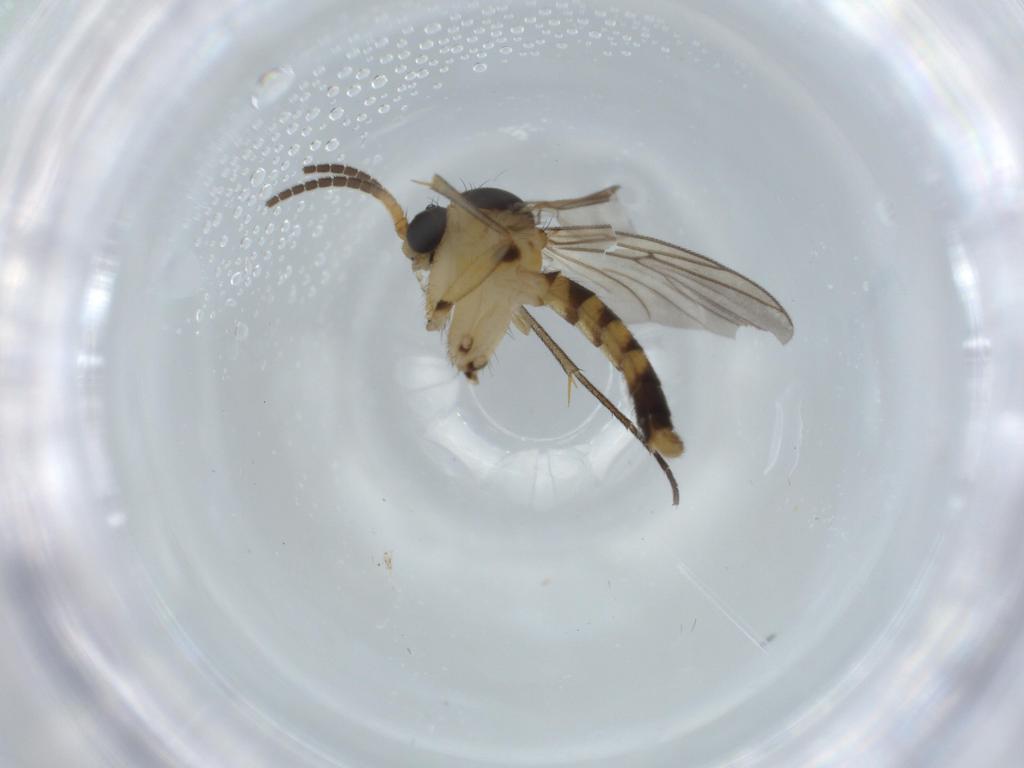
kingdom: Animalia
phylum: Arthropoda
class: Insecta
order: Diptera
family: Mycetophilidae
